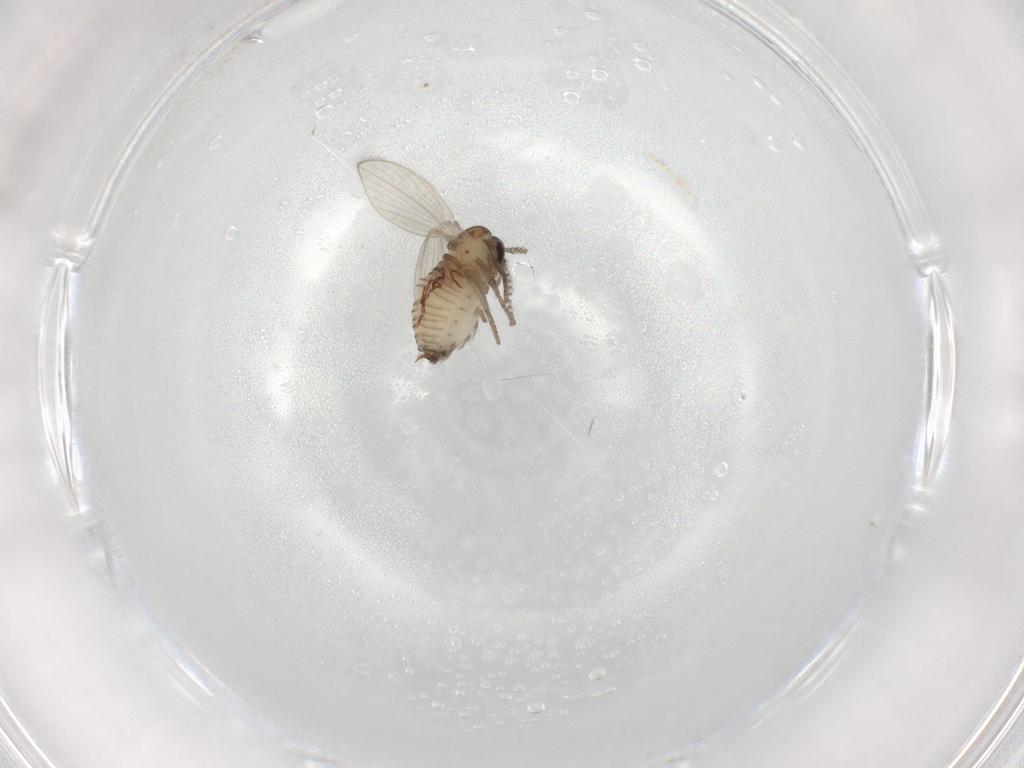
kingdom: Animalia
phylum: Arthropoda
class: Insecta
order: Diptera
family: Psychodidae
